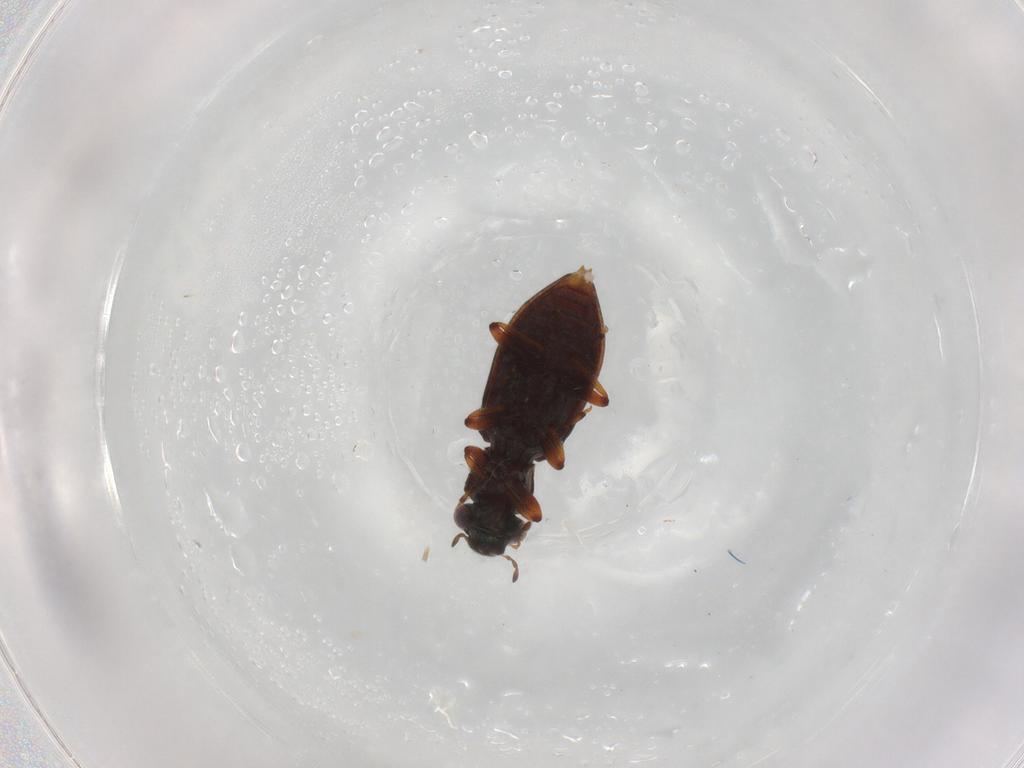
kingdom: Animalia
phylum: Arthropoda
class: Insecta
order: Coleoptera
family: Hydrophilidae
